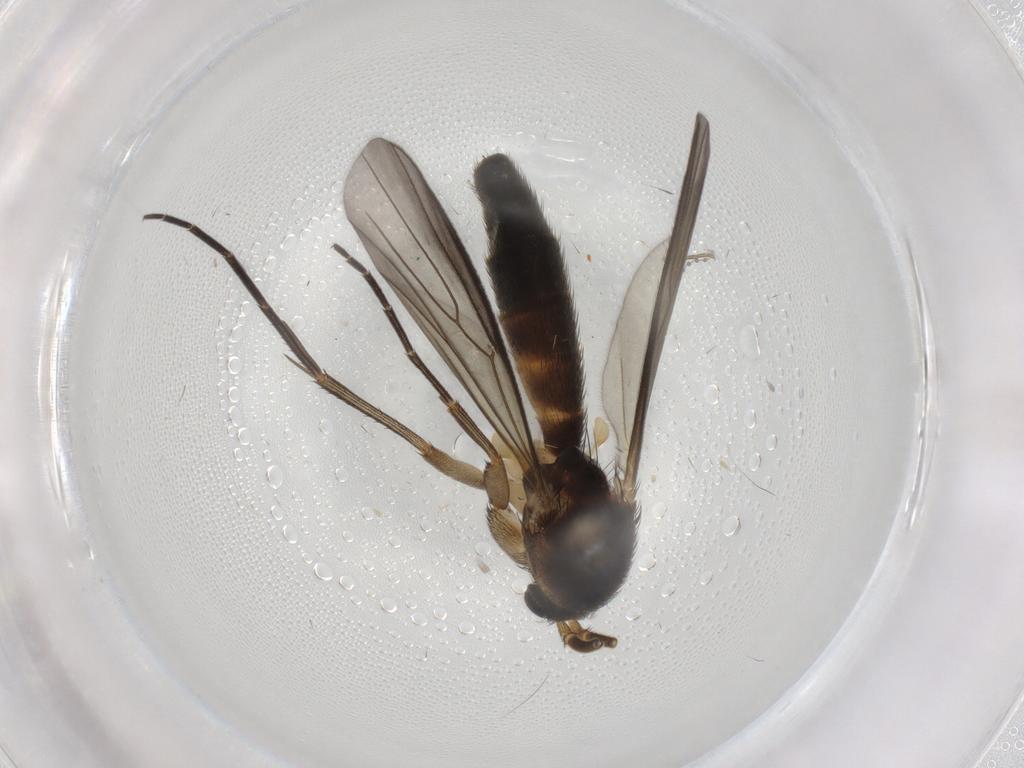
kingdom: Animalia
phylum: Arthropoda
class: Insecta
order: Diptera
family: Mycetophilidae
